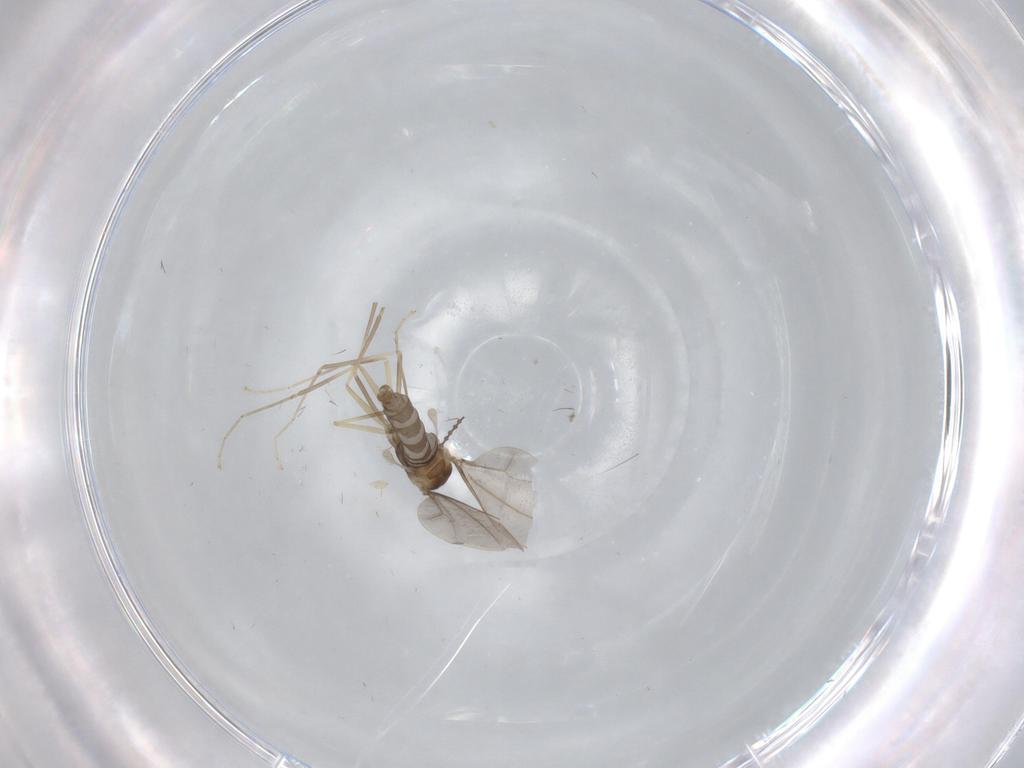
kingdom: Animalia
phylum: Arthropoda
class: Insecta
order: Diptera
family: Cecidomyiidae
